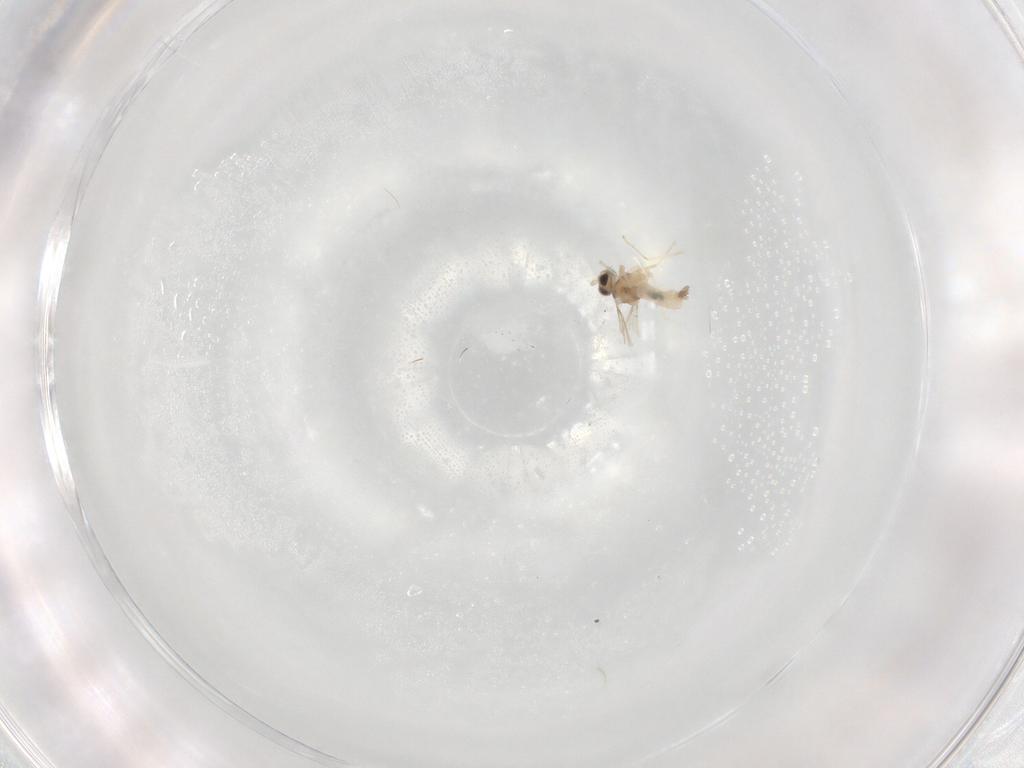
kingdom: Animalia
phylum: Arthropoda
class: Insecta
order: Diptera
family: Cecidomyiidae
